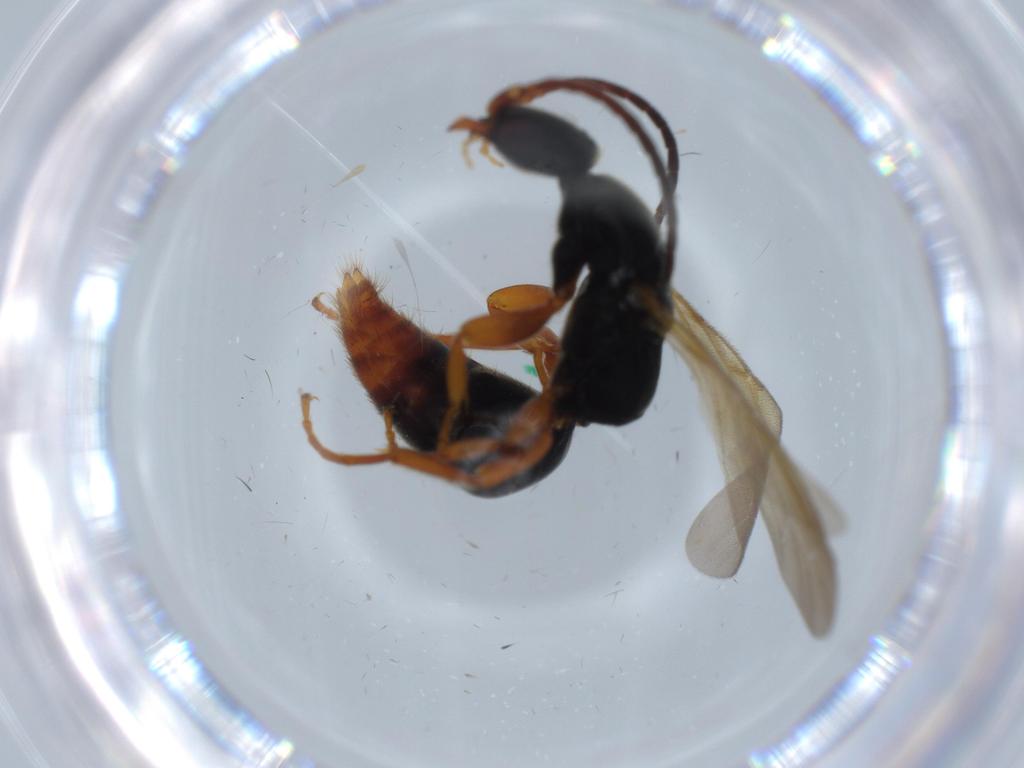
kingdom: Animalia
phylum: Arthropoda
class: Insecta
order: Hymenoptera
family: Bethylidae
